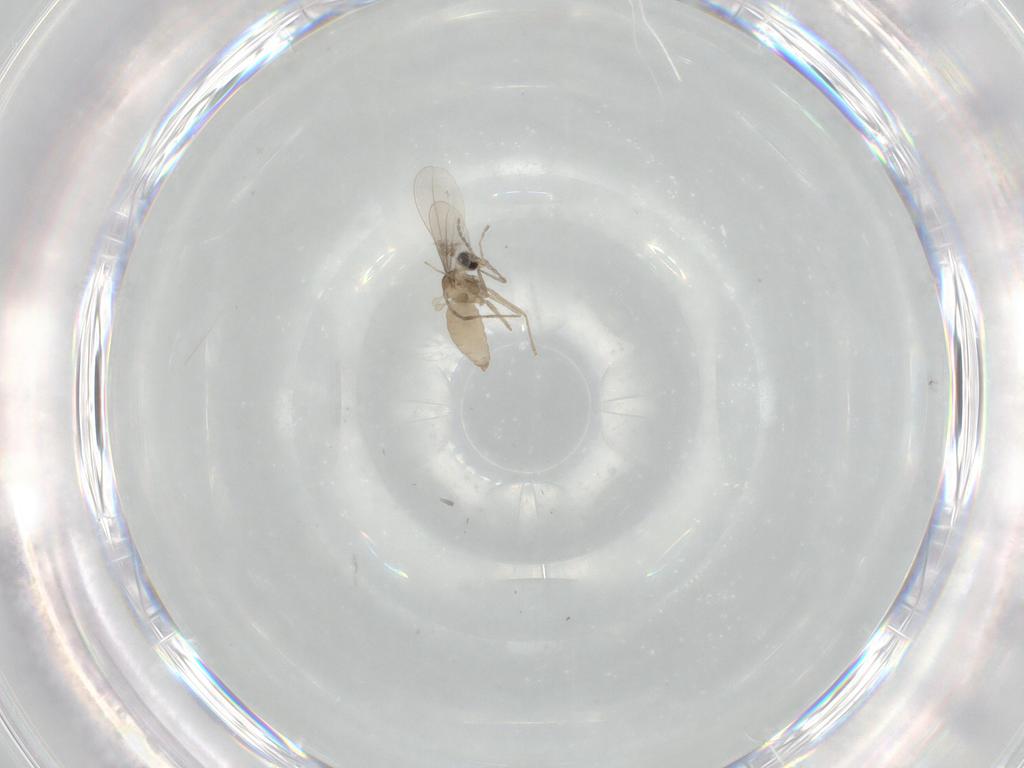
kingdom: Animalia
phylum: Arthropoda
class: Insecta
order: Diptera
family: Cecidomyiidae
